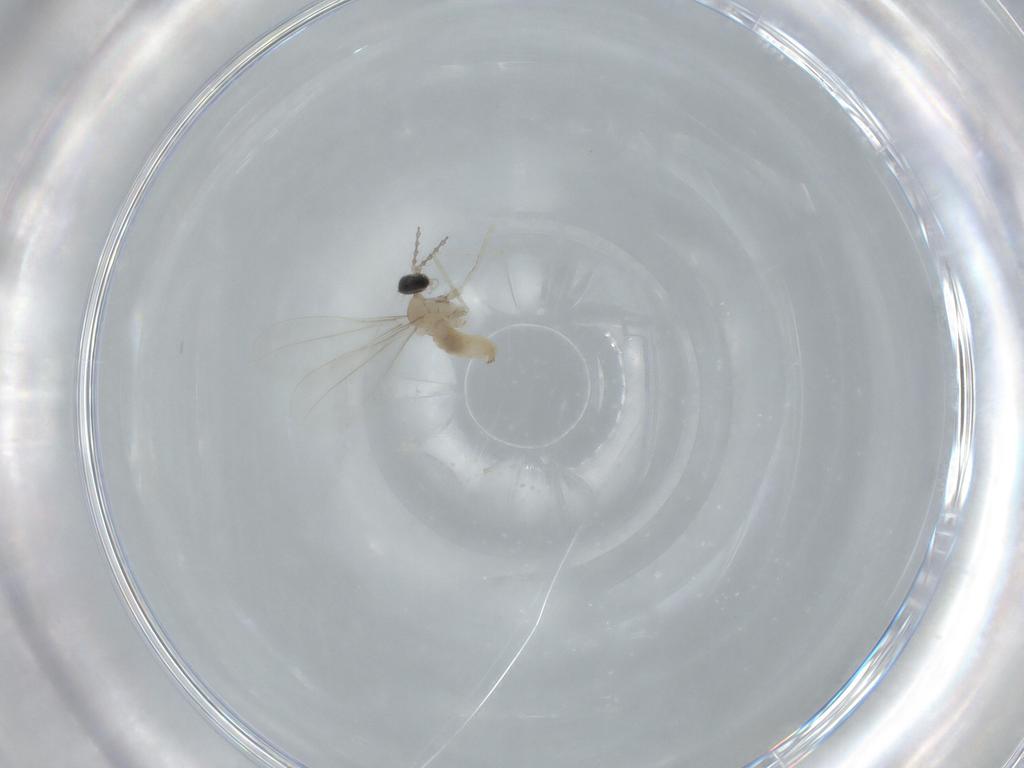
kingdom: Animalia
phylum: Arthropoda
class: Insecta
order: Diptera
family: Cecidomyiidae
